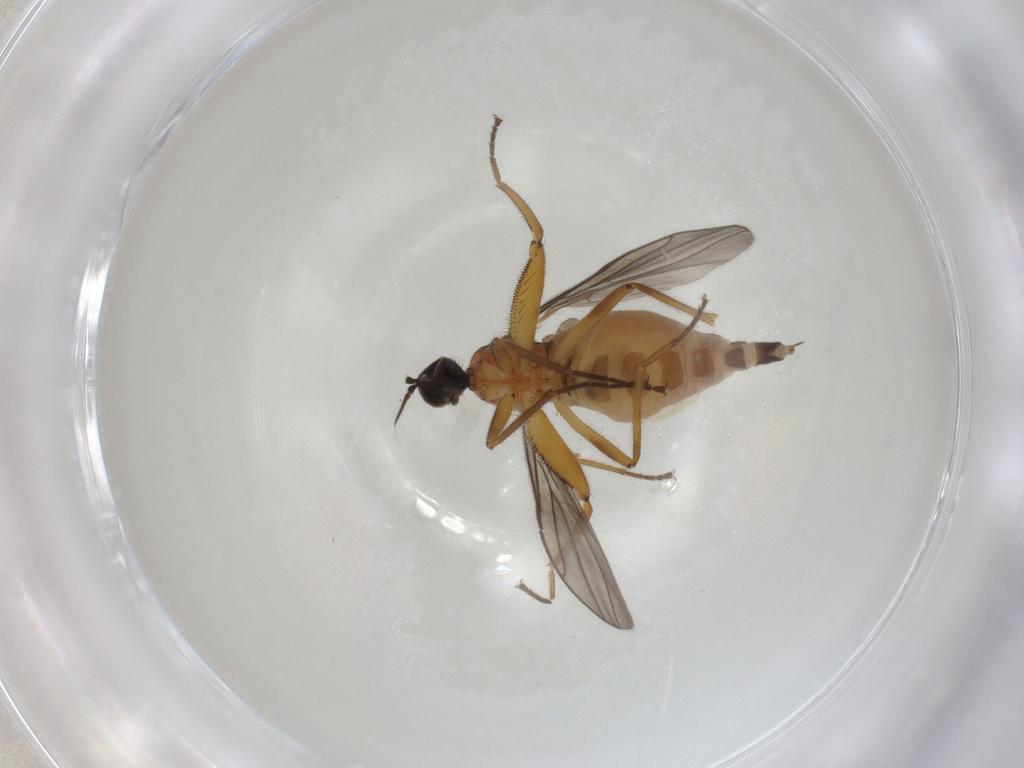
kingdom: Animalia
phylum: Arthropoda
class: Insecta
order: Diptera
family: Hybotidae
